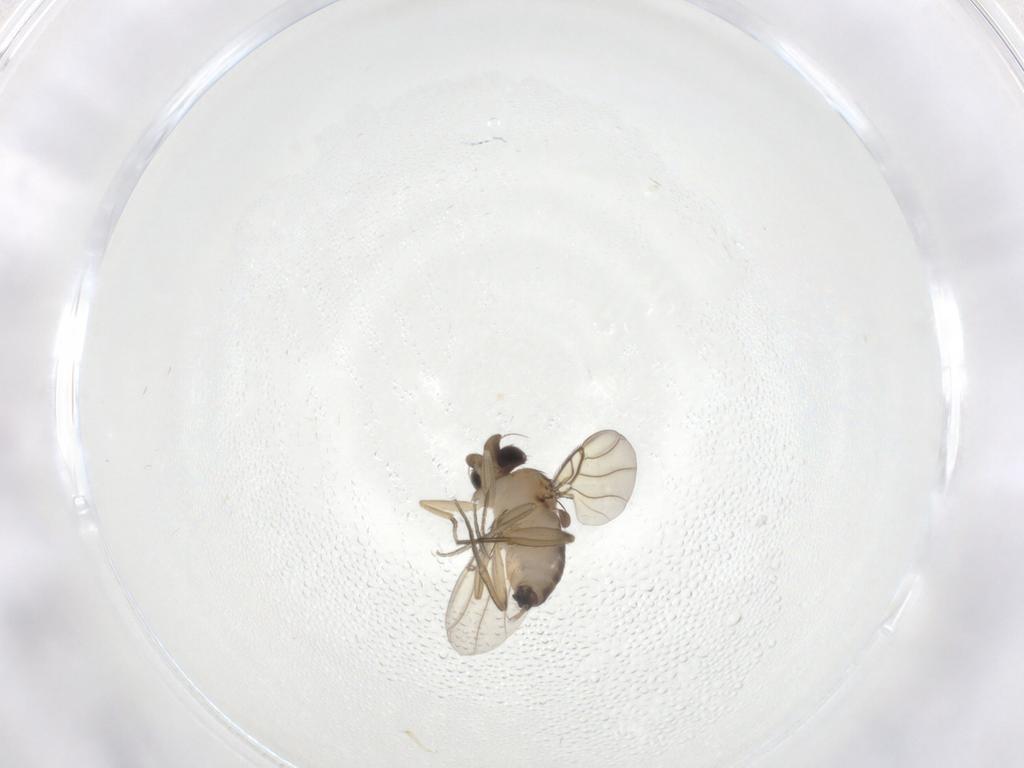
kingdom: Animalia
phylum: Arthropoda
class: Insecta
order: Diptera
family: Phoridae
